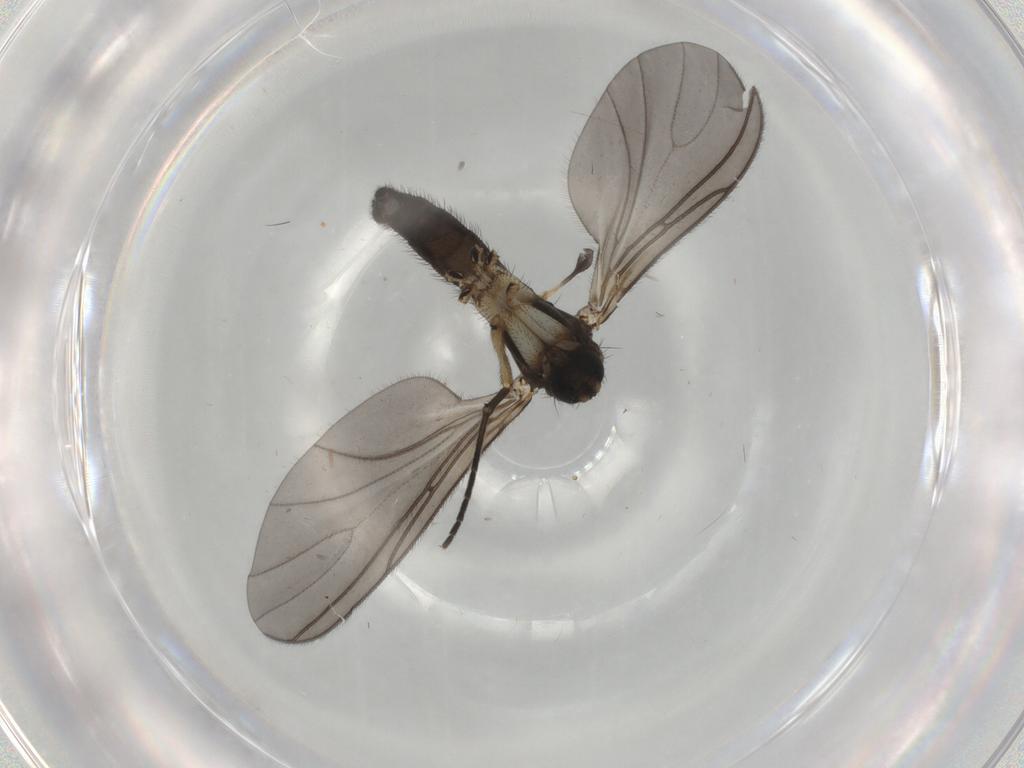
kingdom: Animalia
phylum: Arthropoda
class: Insecta
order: Diptera
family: Sciaridae
